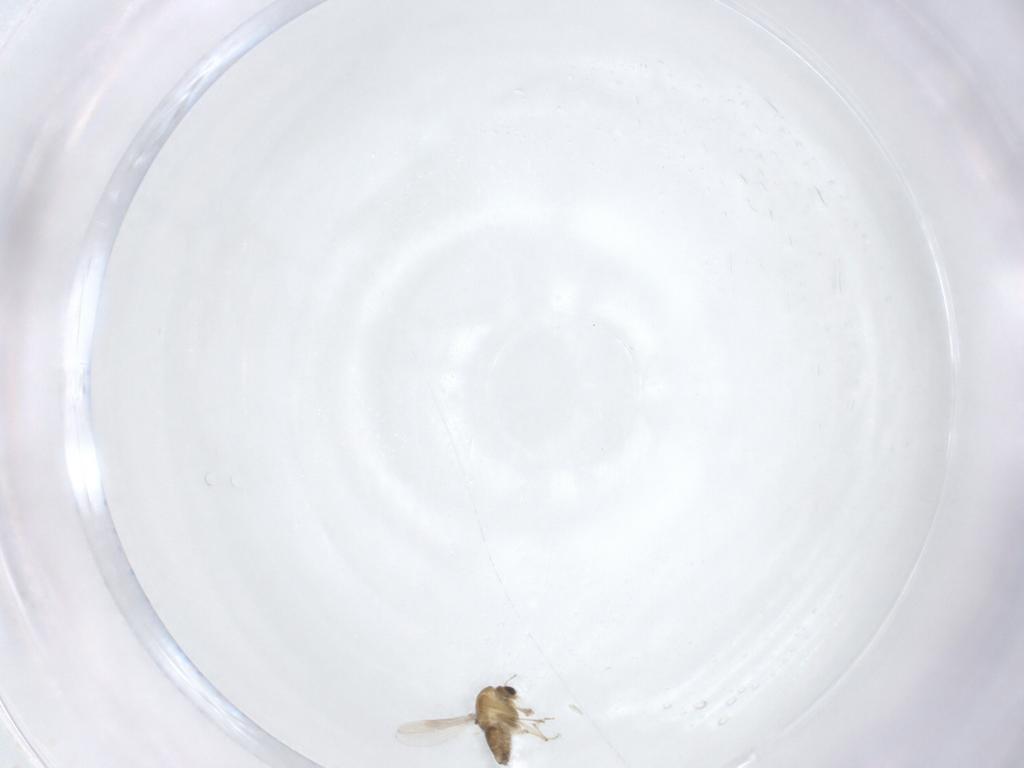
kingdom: Animalia
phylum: Arthropoda
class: Insecta
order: Diptera
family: Chironomidae
